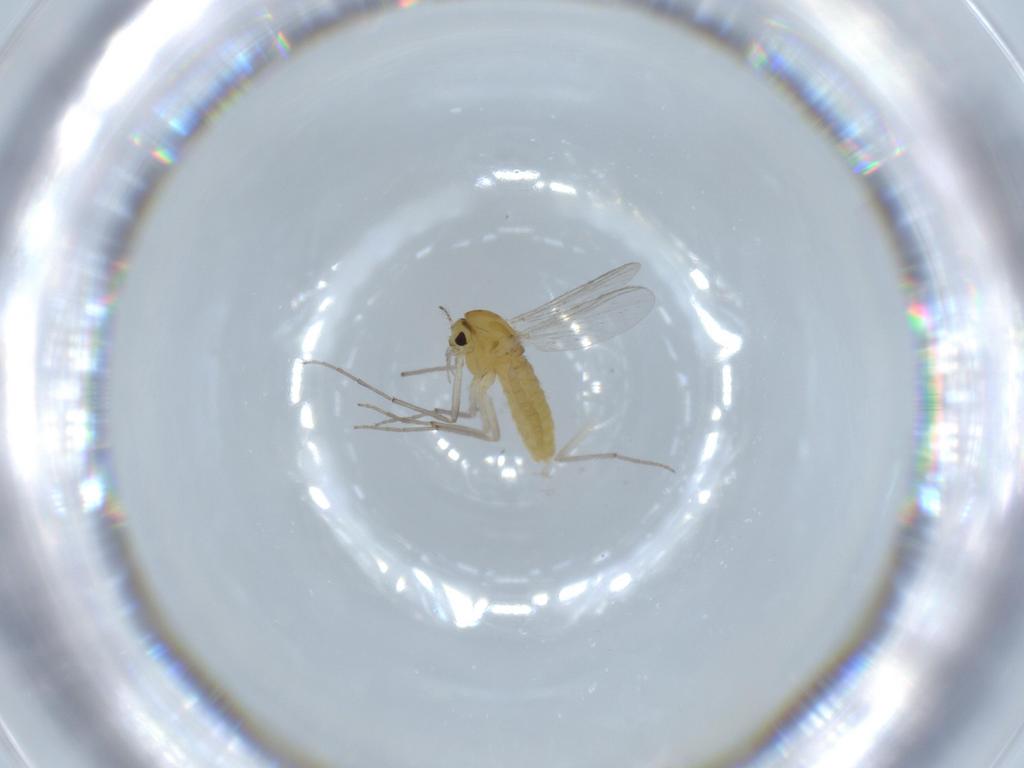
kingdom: Animalia
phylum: Arthropoda
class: Insecta
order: Diptera
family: Chironomidae
